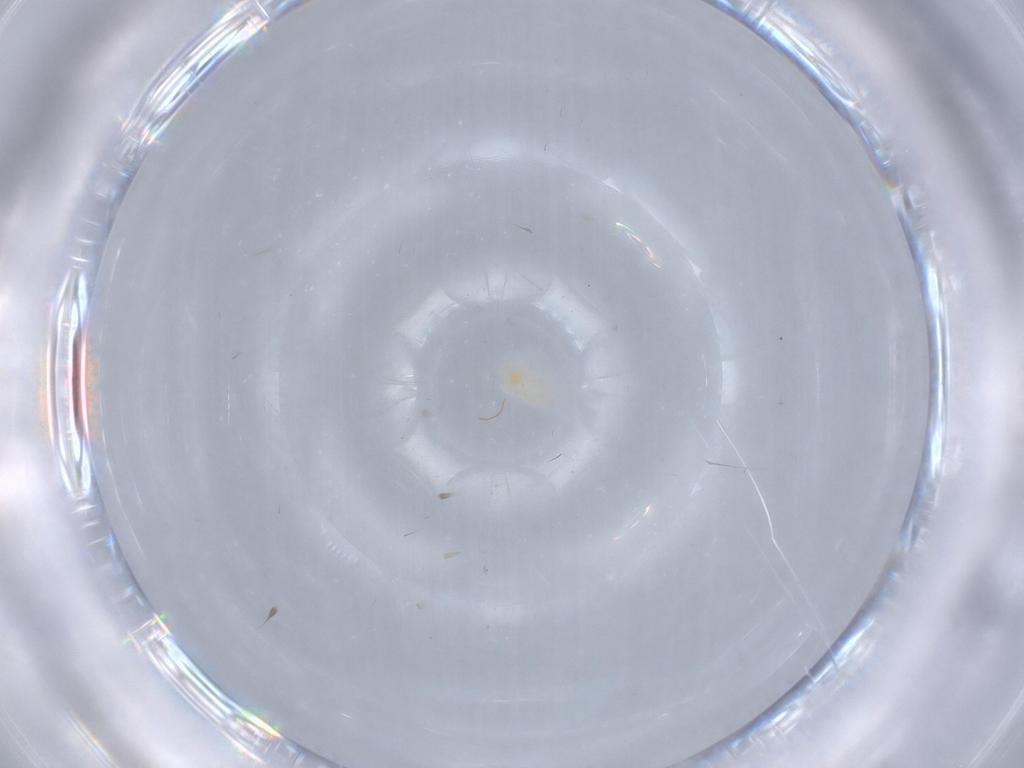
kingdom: Animalia
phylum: Arthropoda
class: Arachnida
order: Trombidiformes
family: Eupodidae
